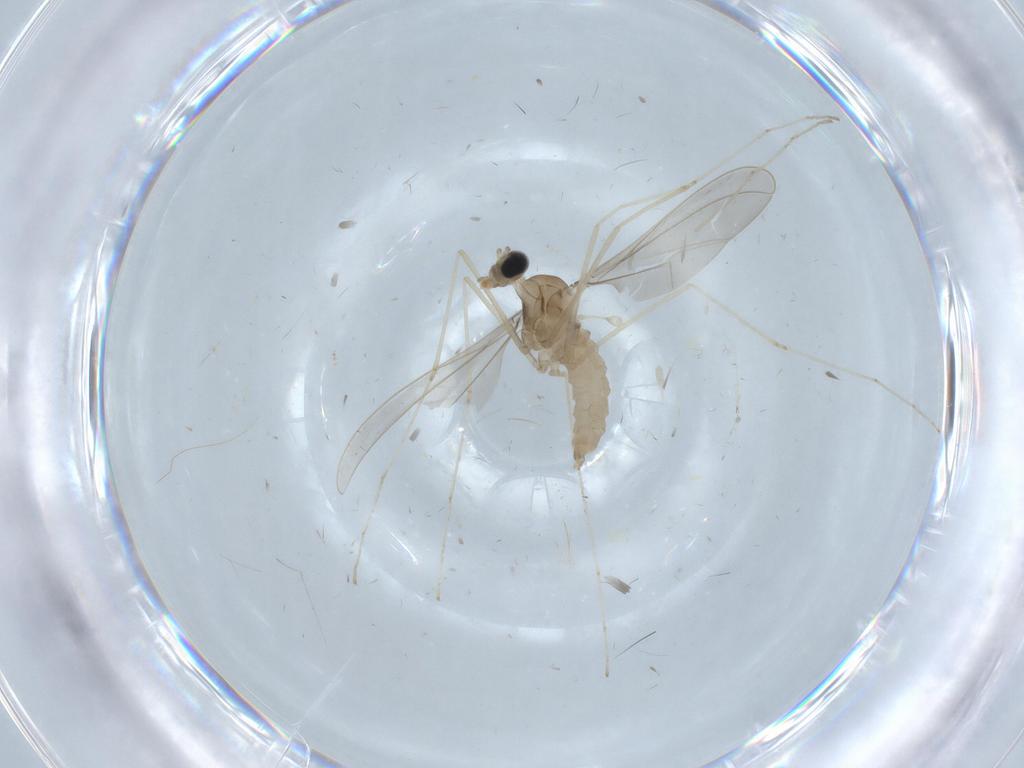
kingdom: Animalia
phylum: Arthropoda
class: Insecta
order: Diptera
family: Cecidomyiidae
